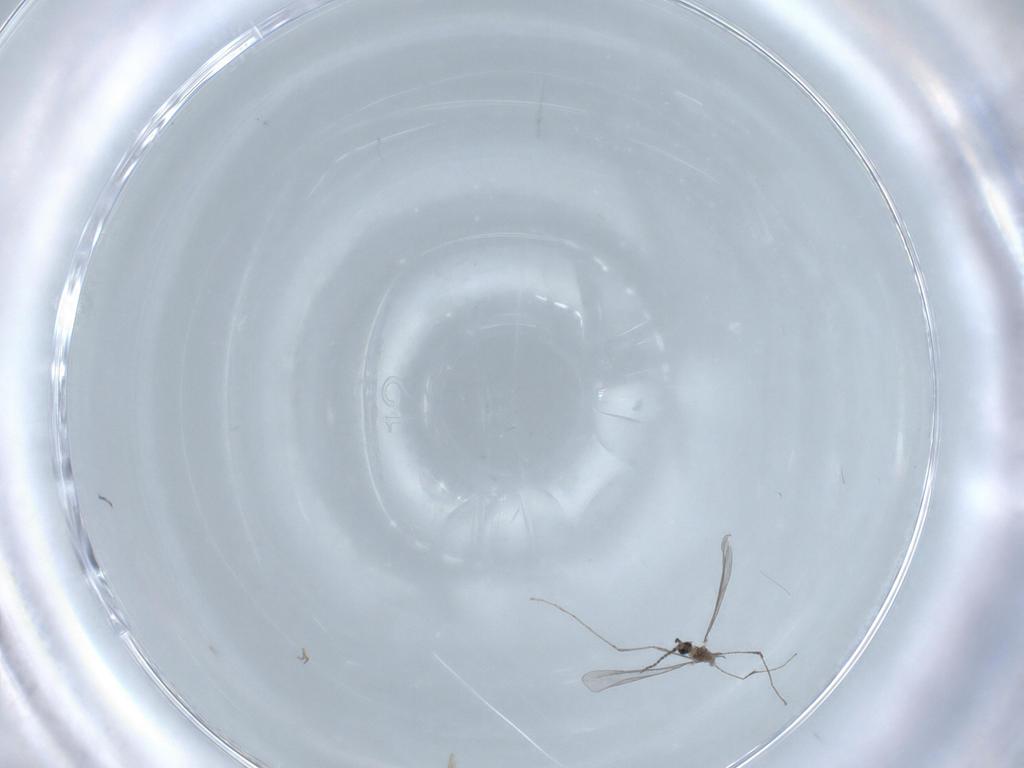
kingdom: Animalia
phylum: Arthropoda
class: Insecta
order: Diptera
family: Cecidomyiidae
